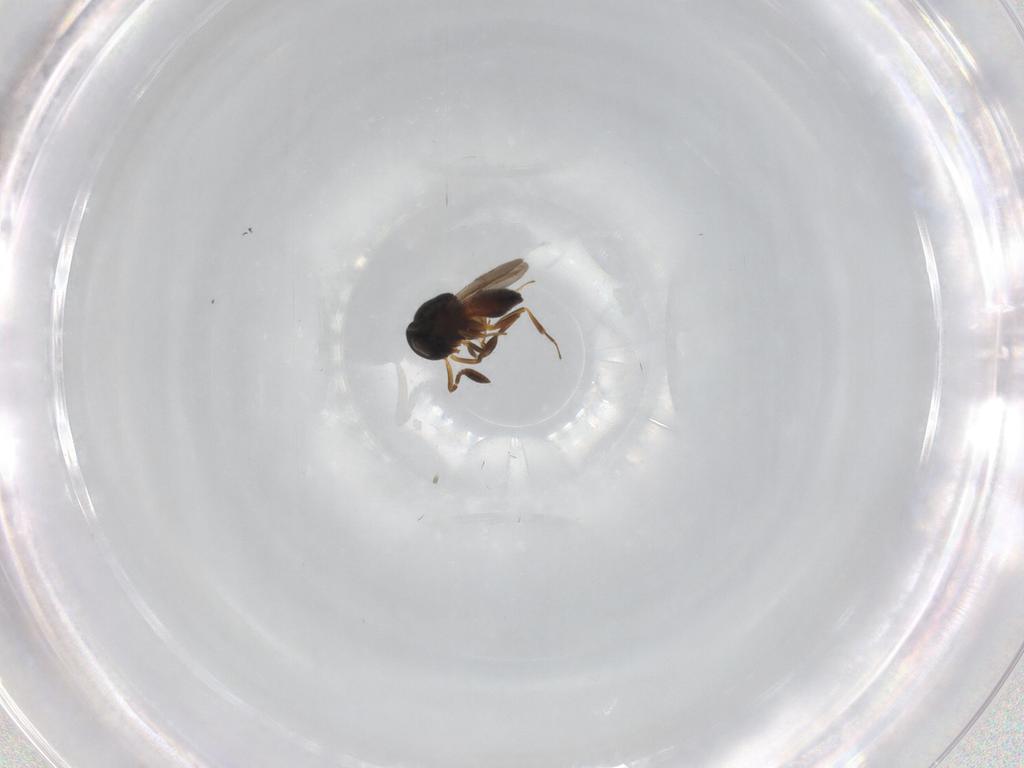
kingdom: Animalia
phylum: Arthropoda
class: Insecta
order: Hymenoptera
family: Scelionidae
